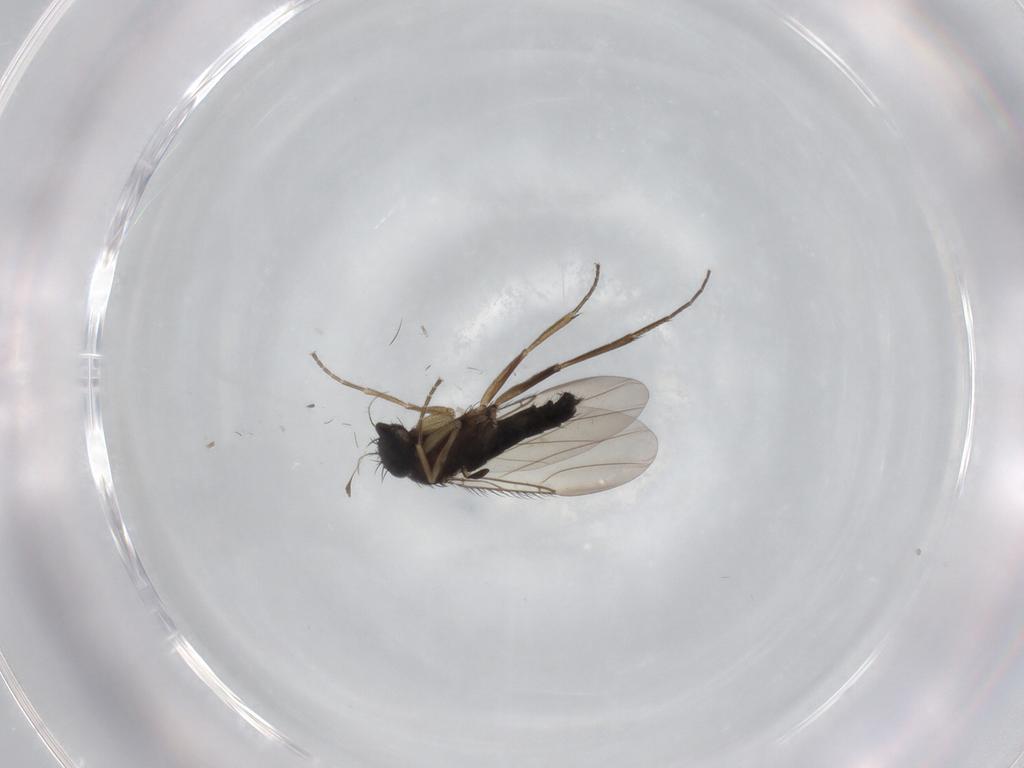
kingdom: Animalia
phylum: Arthropoda
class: Insecta
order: Diptera
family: Phoridae
